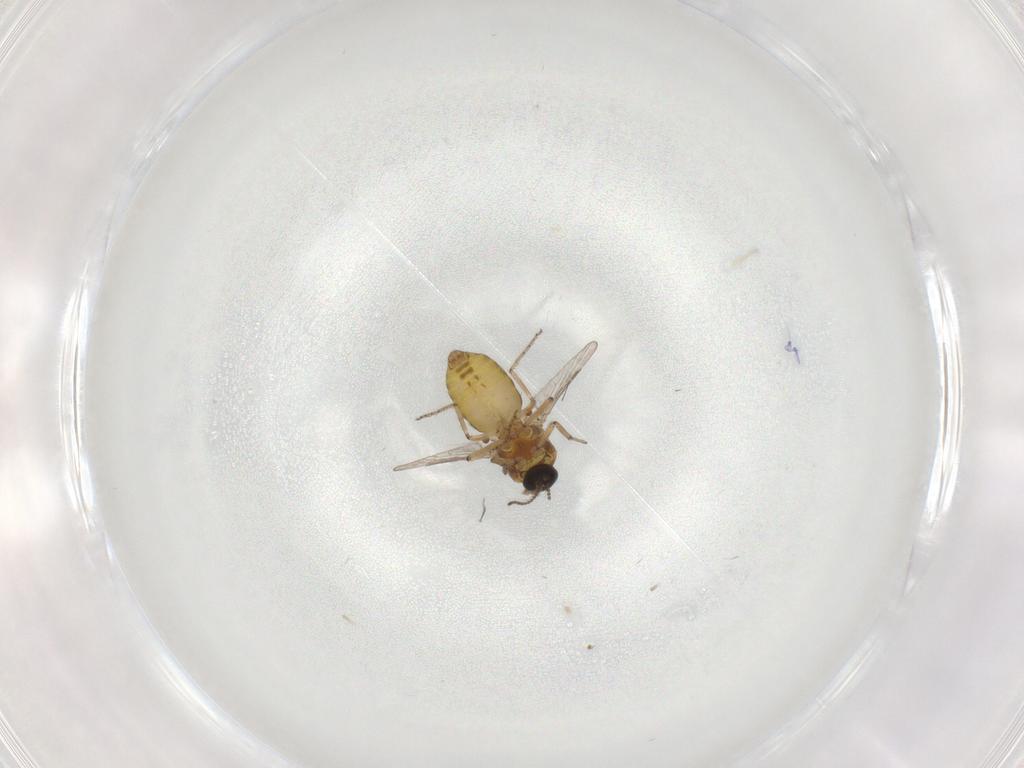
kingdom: Animalia
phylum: Arthropoda
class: Insecta
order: Diptera
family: Ceratopogonidae
